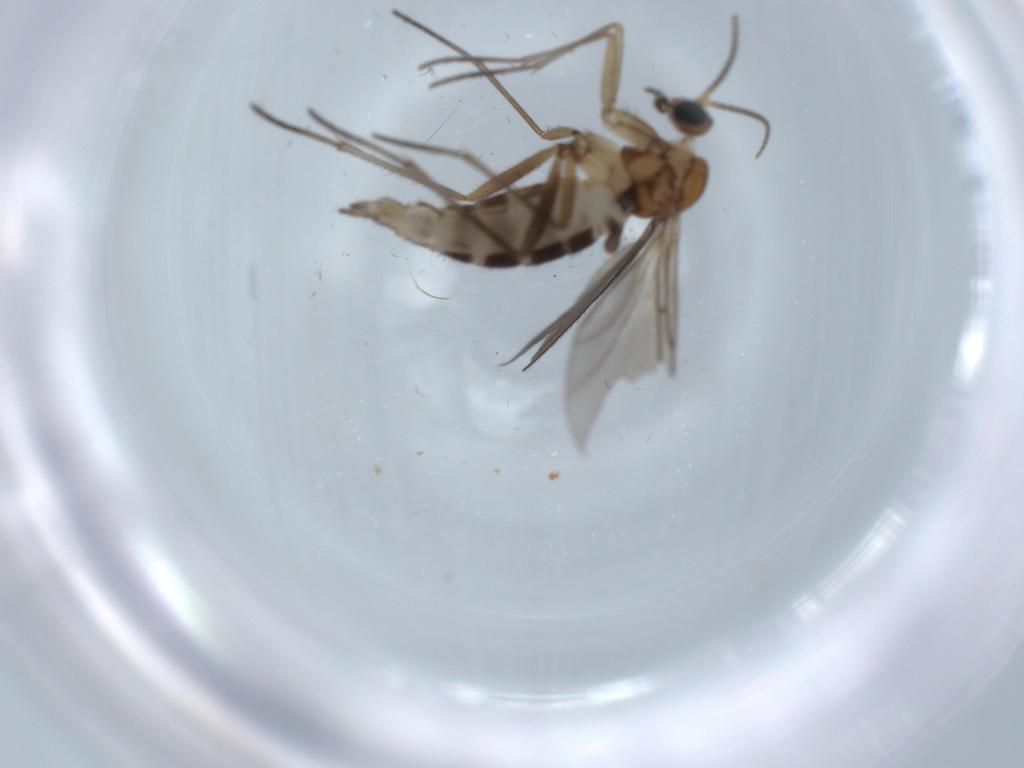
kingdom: Animalia
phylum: Arthropoda
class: Insecta
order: Diptera
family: Sciaridae
